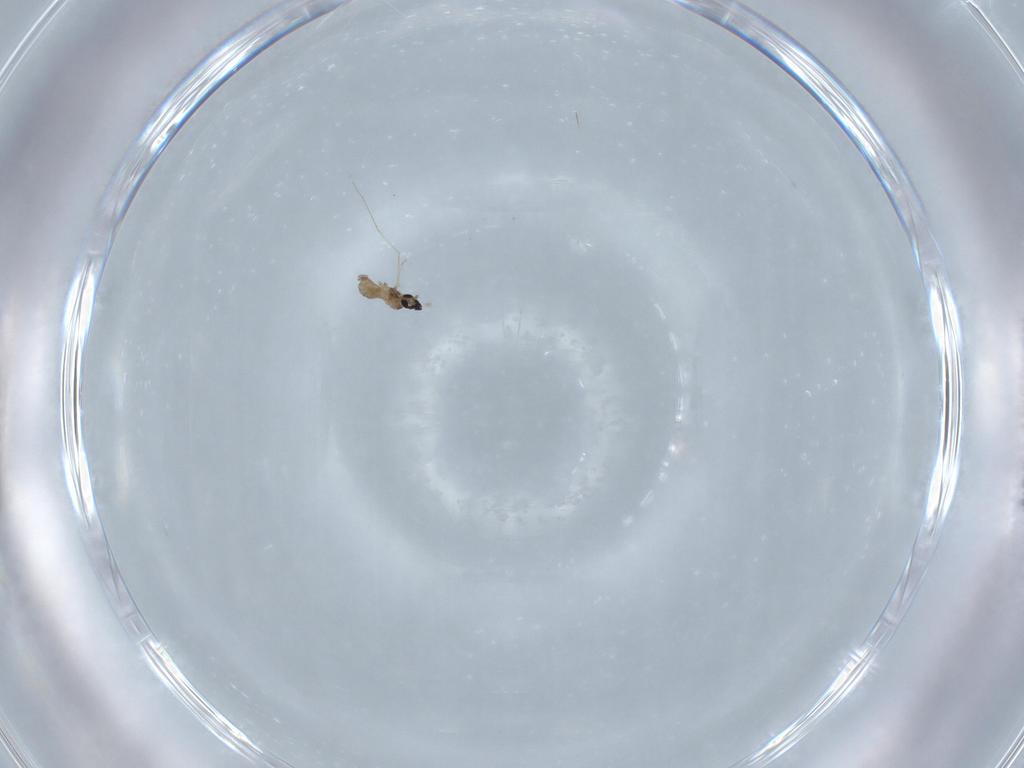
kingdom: Animalia
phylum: Arthropoda
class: Insecta
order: Diptera
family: Cecidomyiidae
